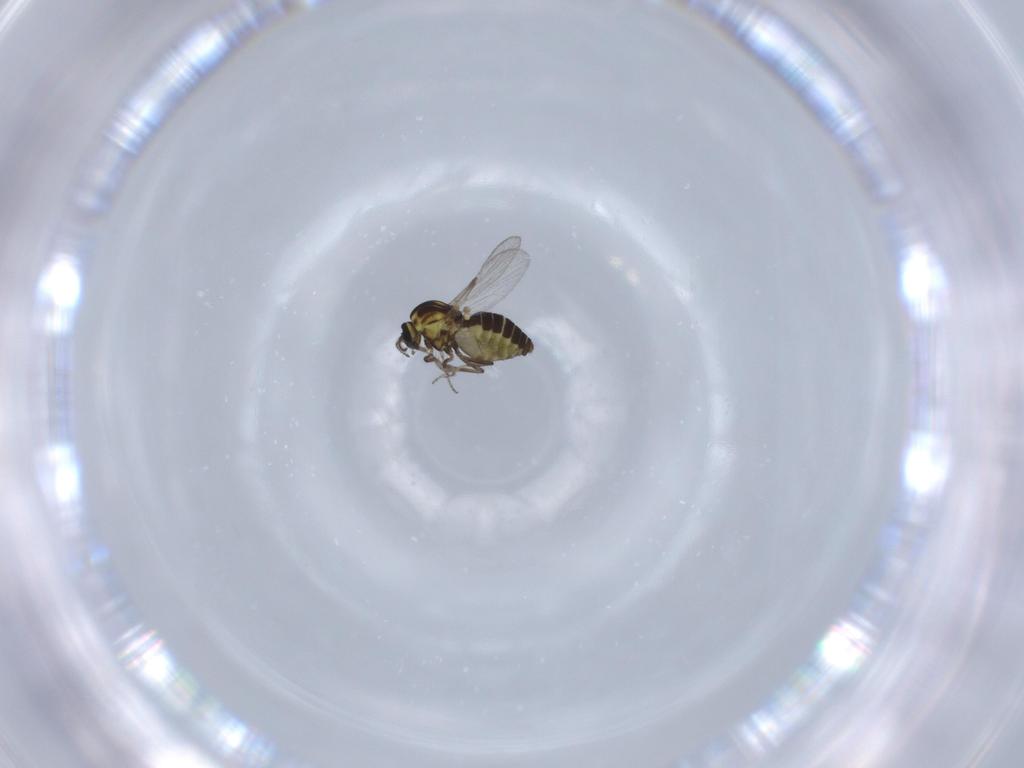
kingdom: Animalia
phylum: Arthropoda
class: Insecta
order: Diptera
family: Ceratopogonidae
